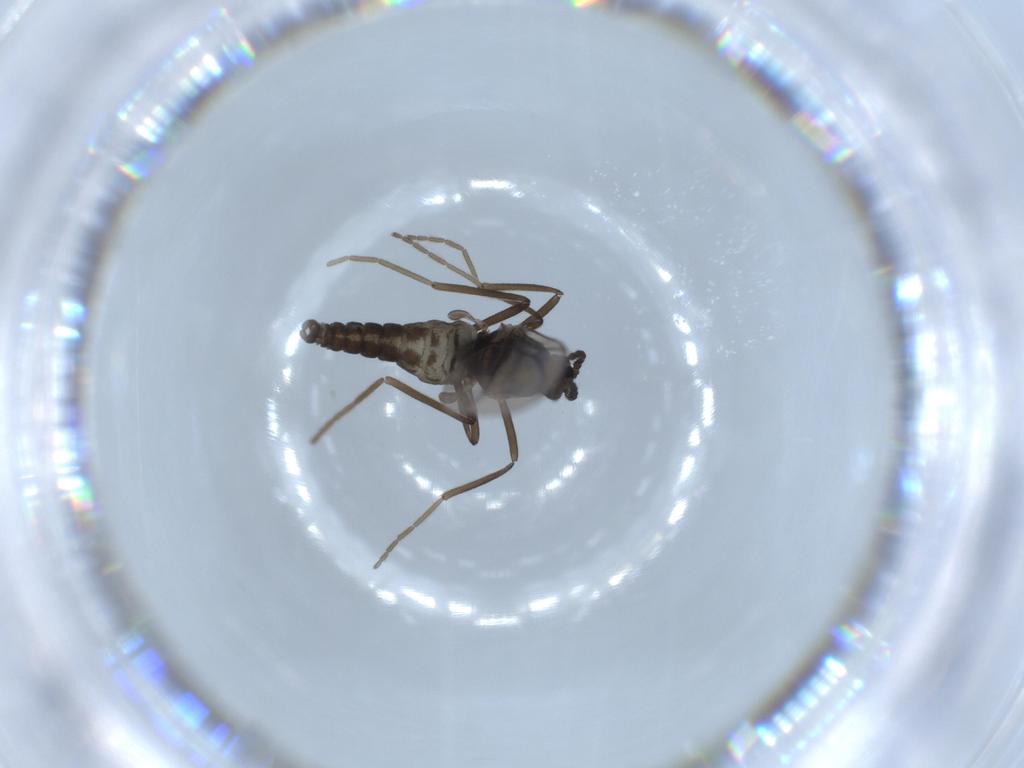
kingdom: Animalia
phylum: Arthropoda
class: Insecta
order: Diptera
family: Cecidomyiidae
